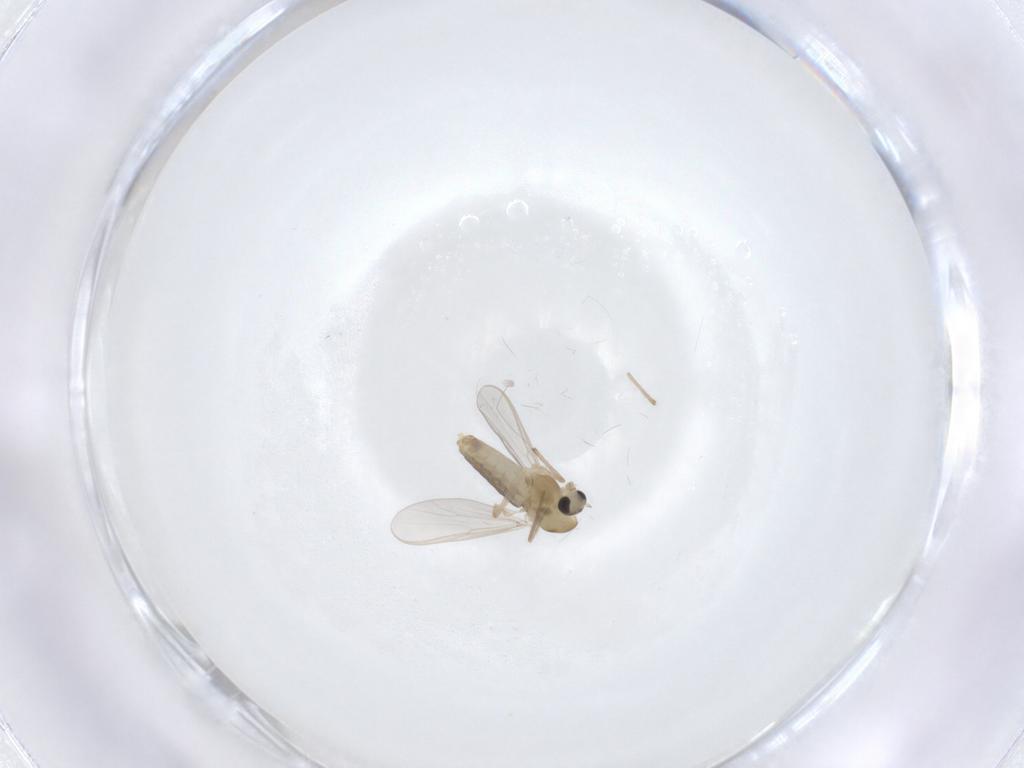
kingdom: Animalia
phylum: Arthropoda
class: Insecta
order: Diptera
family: Chironomidae
